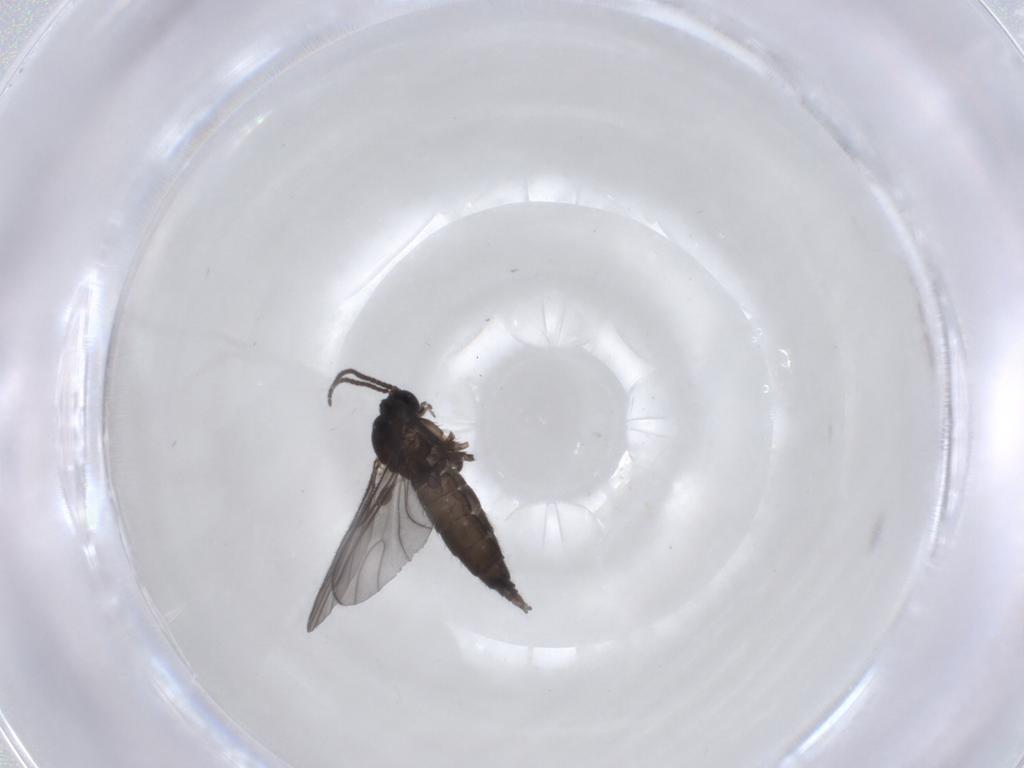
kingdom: Animalia
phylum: Arthropoda
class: Insecta
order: Diptera
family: Sciaridae
